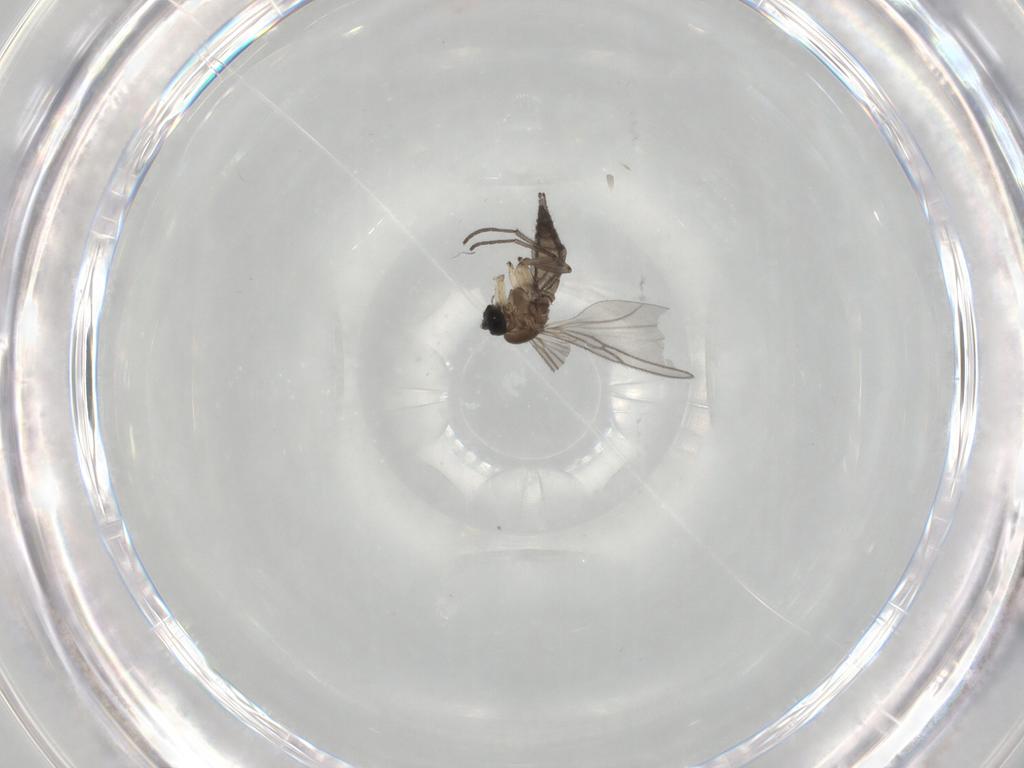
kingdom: Animalia
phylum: Arthropoda
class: Insecta
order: Diptera
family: Sciaridae
